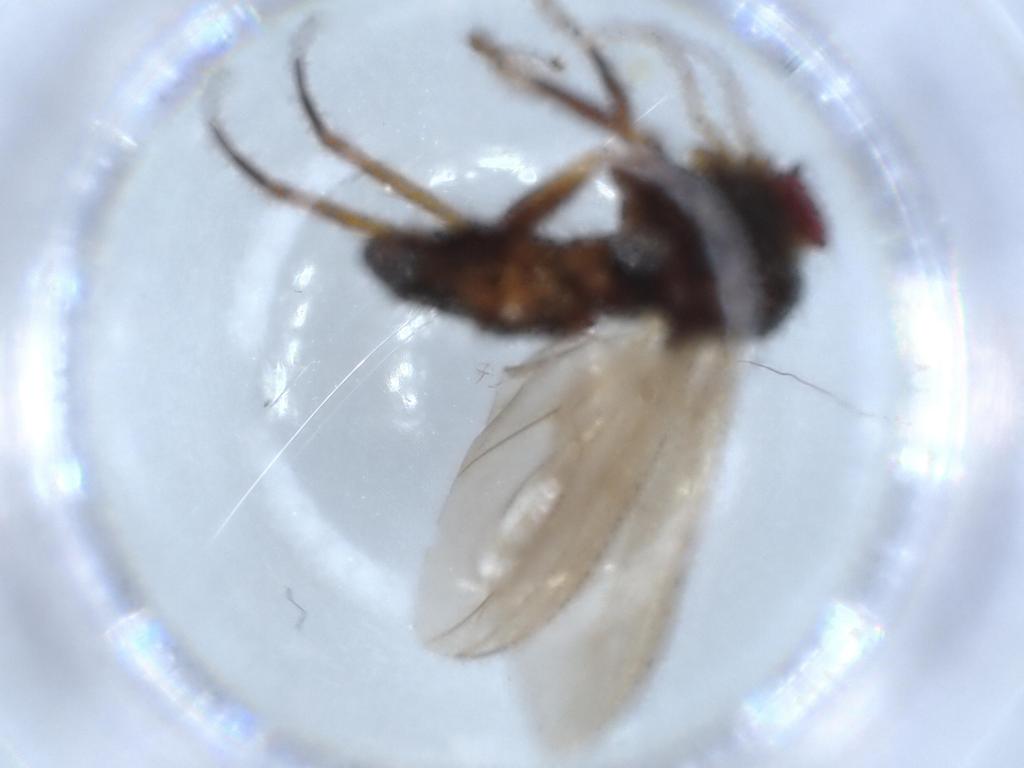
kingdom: Animalia
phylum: Arthropoda
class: Insecta
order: Diptera
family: Dolichopodidae
